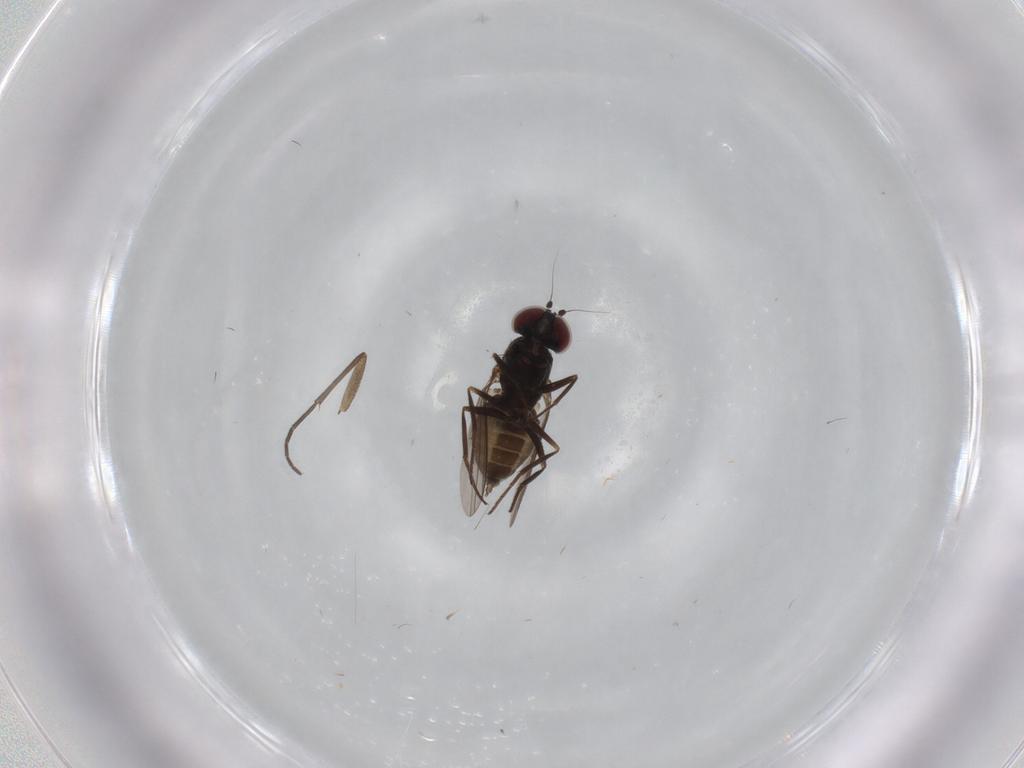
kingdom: Animalia
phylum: Arthropoda
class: Insecta
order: Diptera
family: Dolichopodidae
